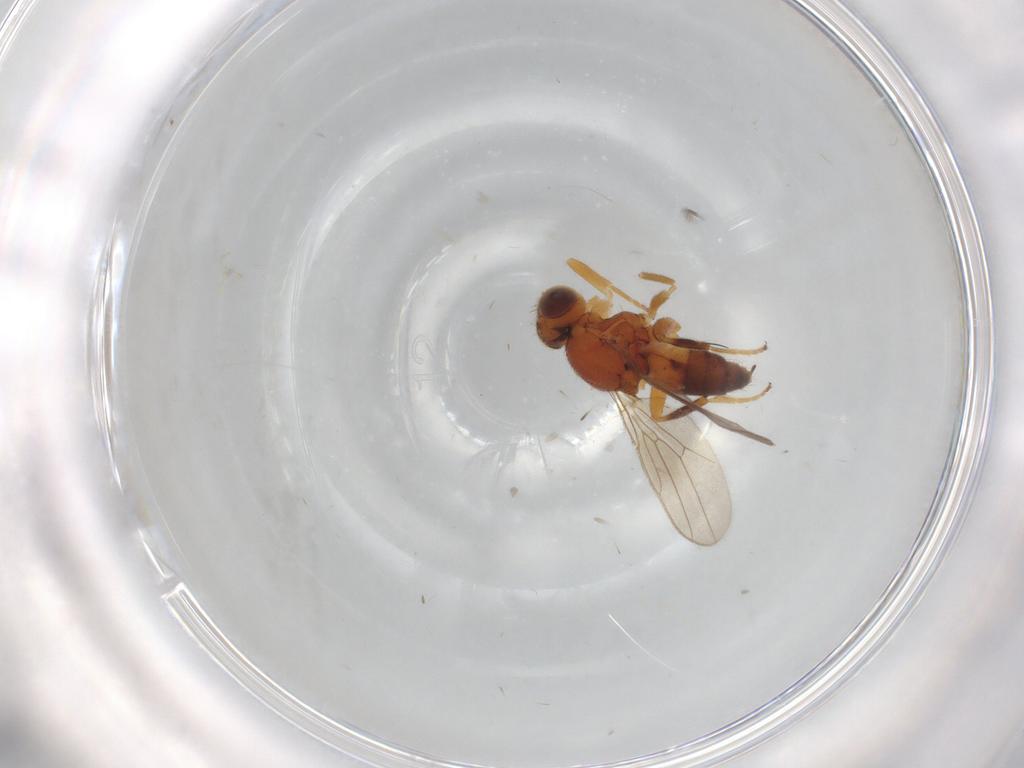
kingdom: Animalia
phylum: Arthropoda
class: Insecta
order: Diptera
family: Cecidomyiidae
